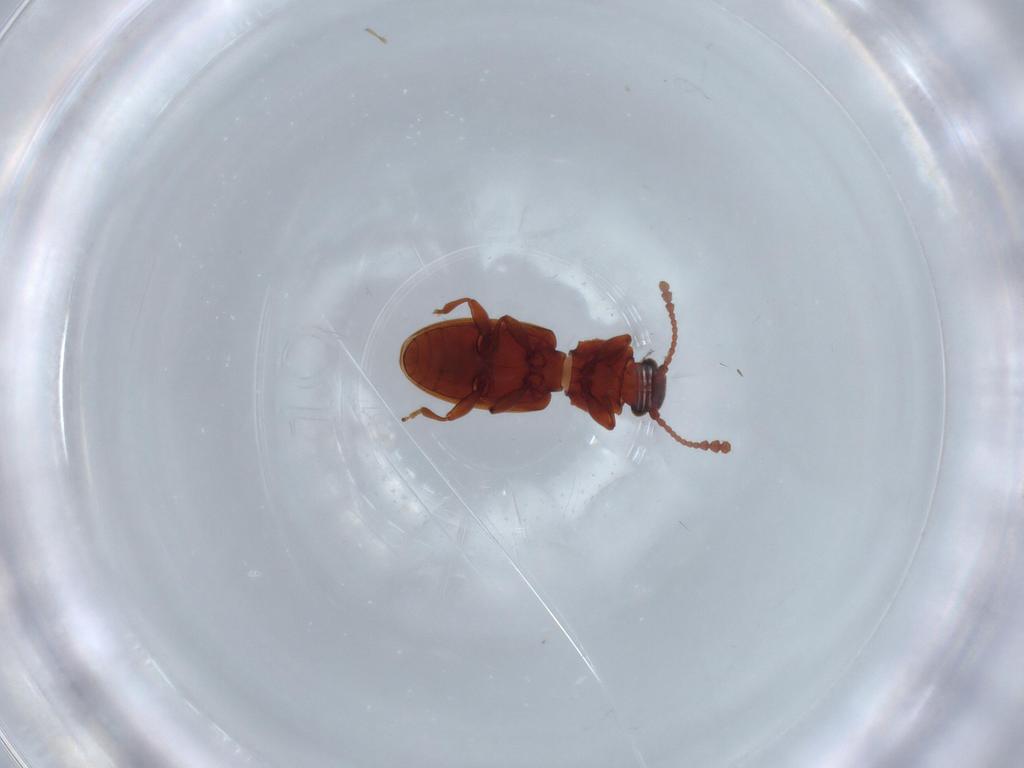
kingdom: Animalia
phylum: Arthropoda
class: Insecta
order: Coleoptera
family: Silvanidae
